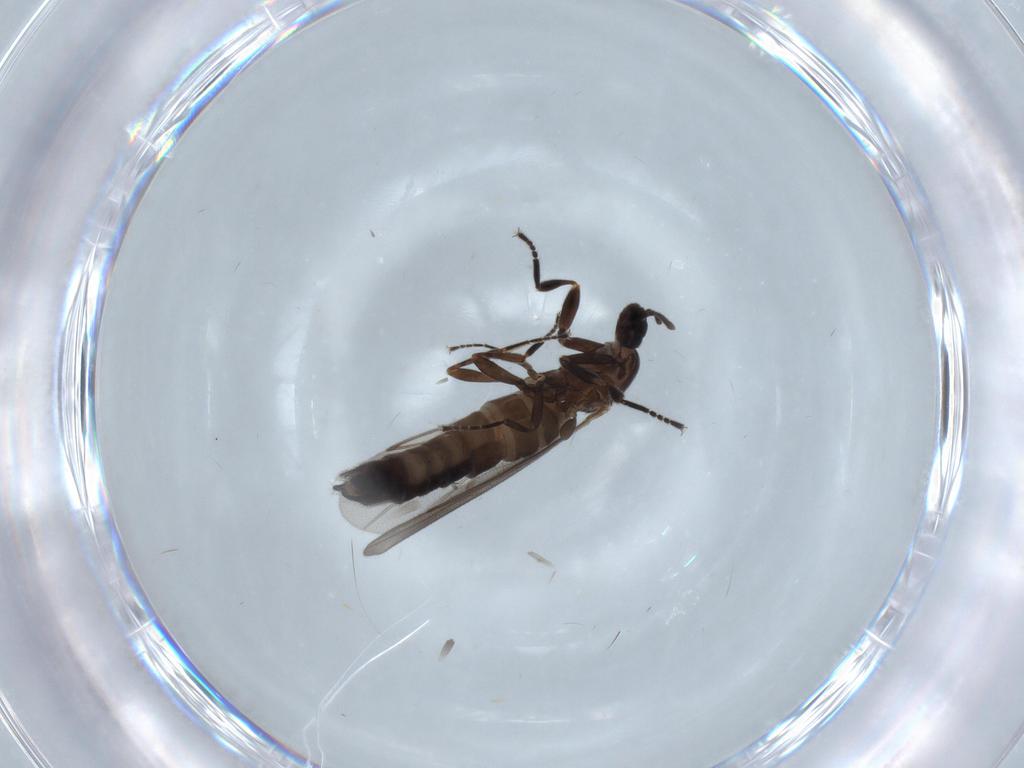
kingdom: Animalia
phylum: Arthropoda
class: Insecta
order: Diptera
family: Scatopsidae
